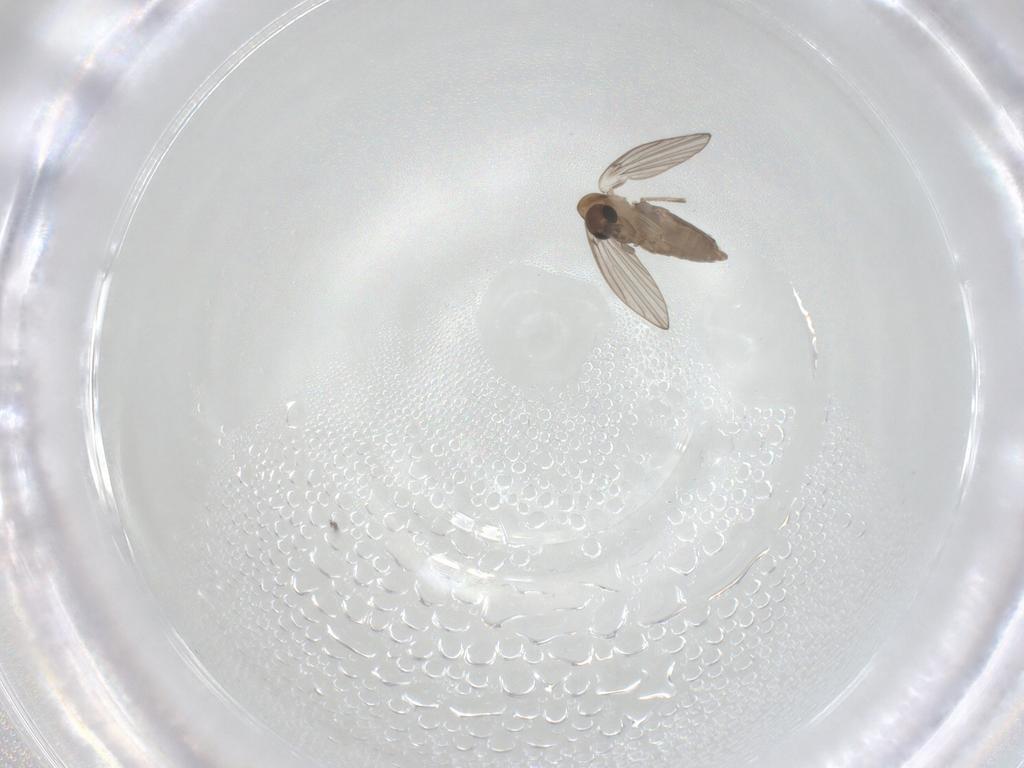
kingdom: Animalia
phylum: Arthropoda
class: Insecta
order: Diptera
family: Psychodidae
